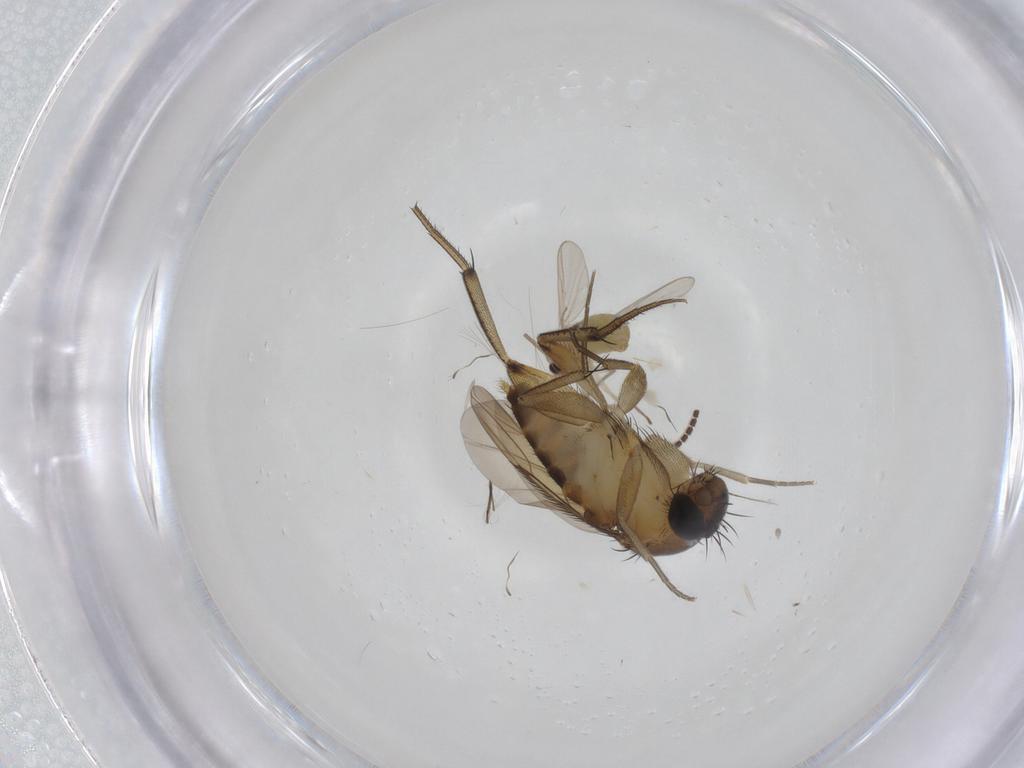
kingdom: Animalia
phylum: Arthropoda
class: Insecta
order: Diptera
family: Phoridae
